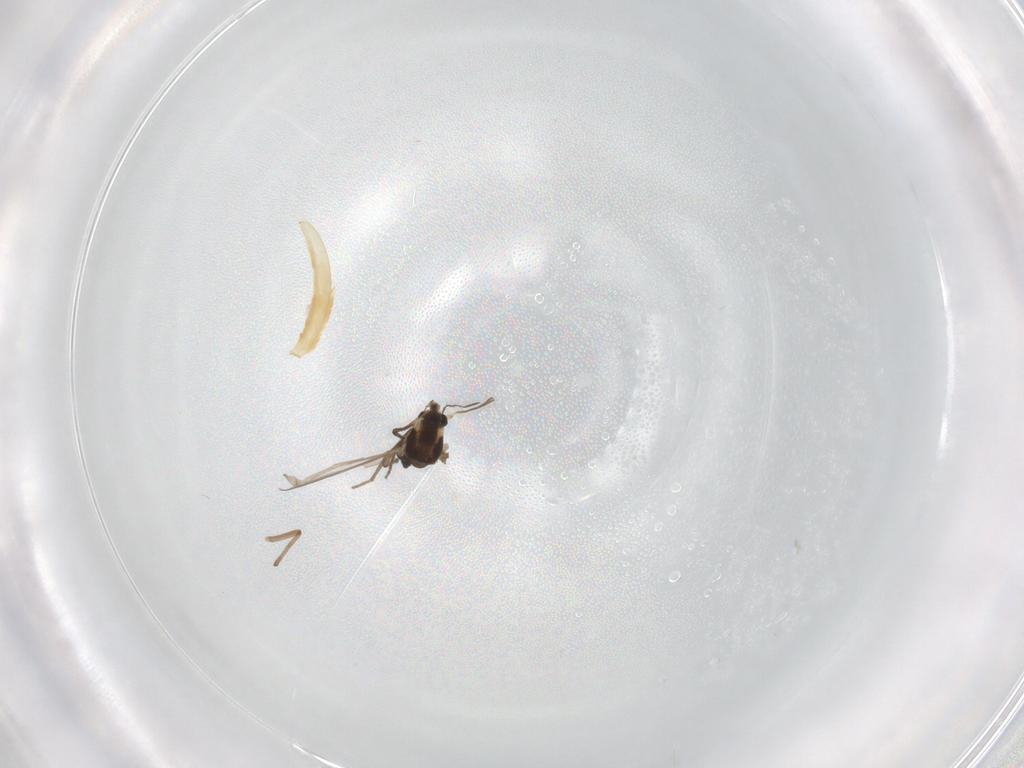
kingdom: Animalia
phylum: Arthropoda
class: Insecta
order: Diptera
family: Chironomidae
